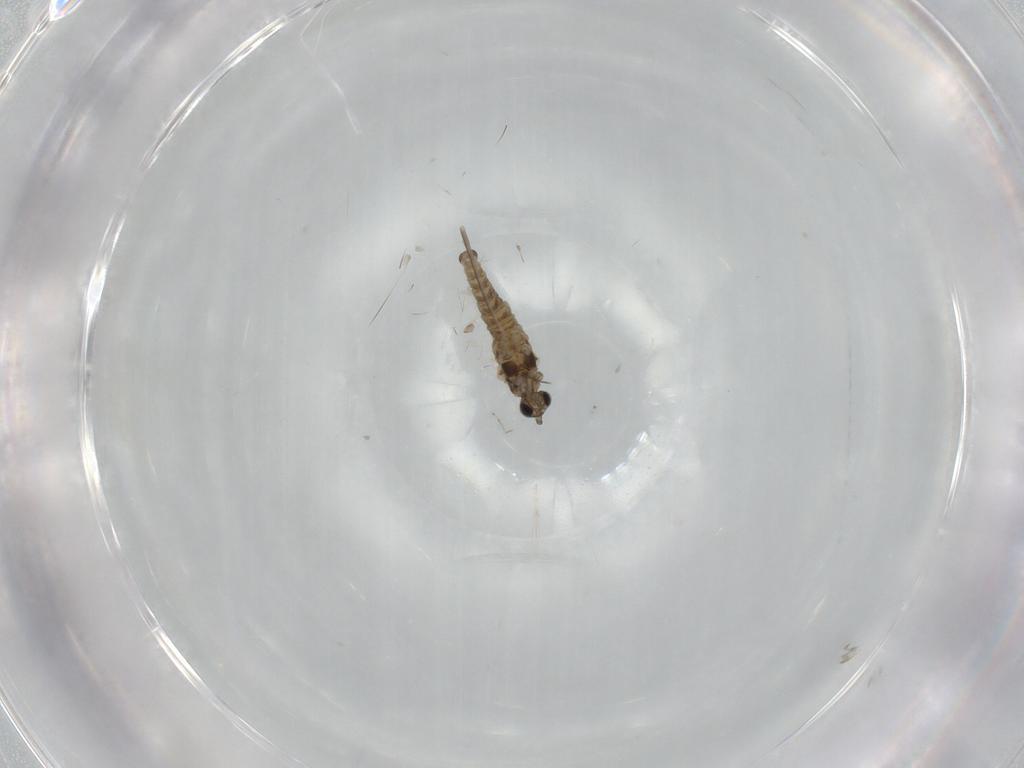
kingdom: Animalia
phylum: Arthropoda
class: Insecta
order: Diptera
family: Cecidomyiidae
